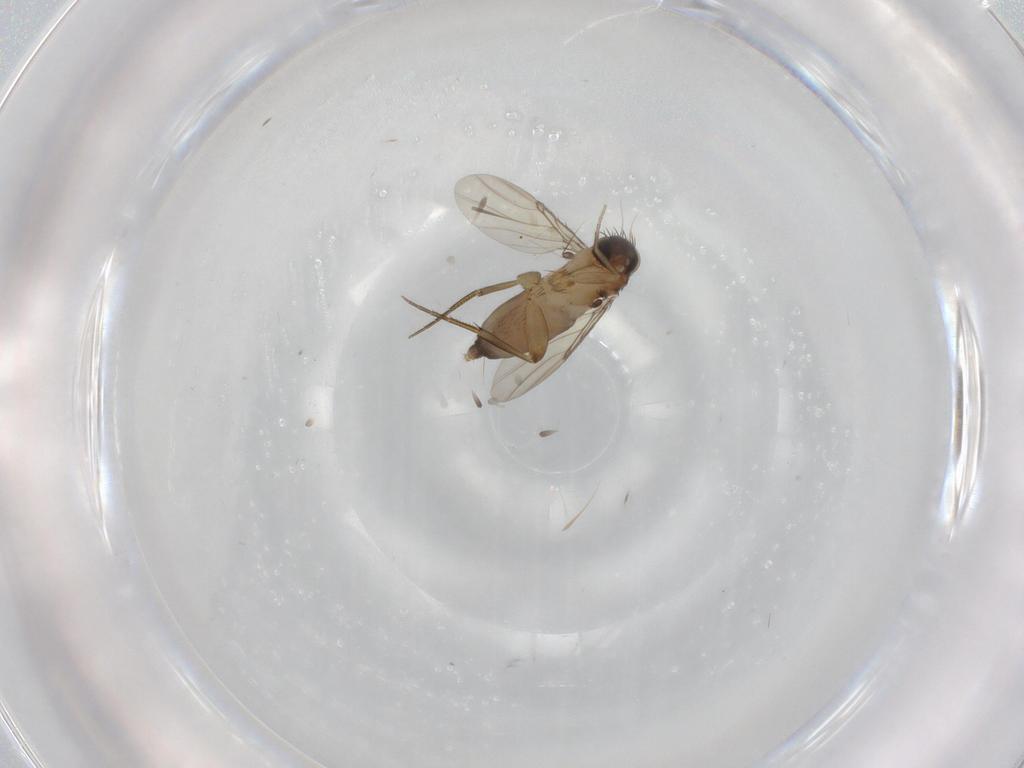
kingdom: Animalia
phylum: Arthropoda
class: Insecta
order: Diptera
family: Sciaridae
